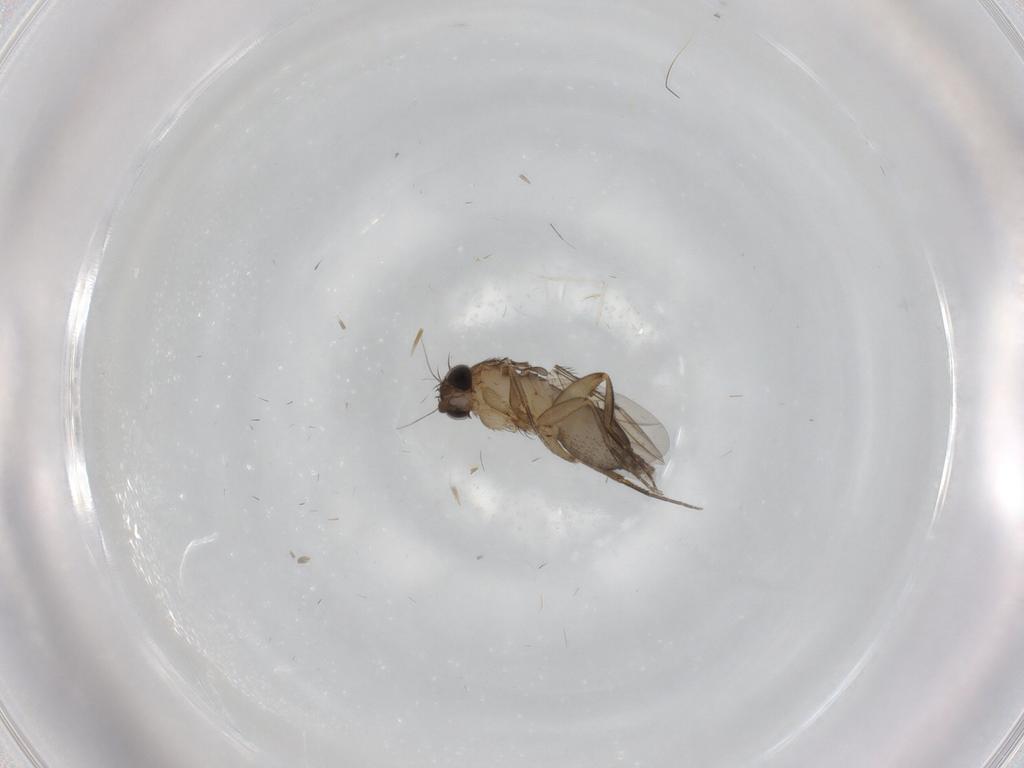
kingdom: Animalia
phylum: Arthropoda
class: Insecta
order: Diptera
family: Phoridae
